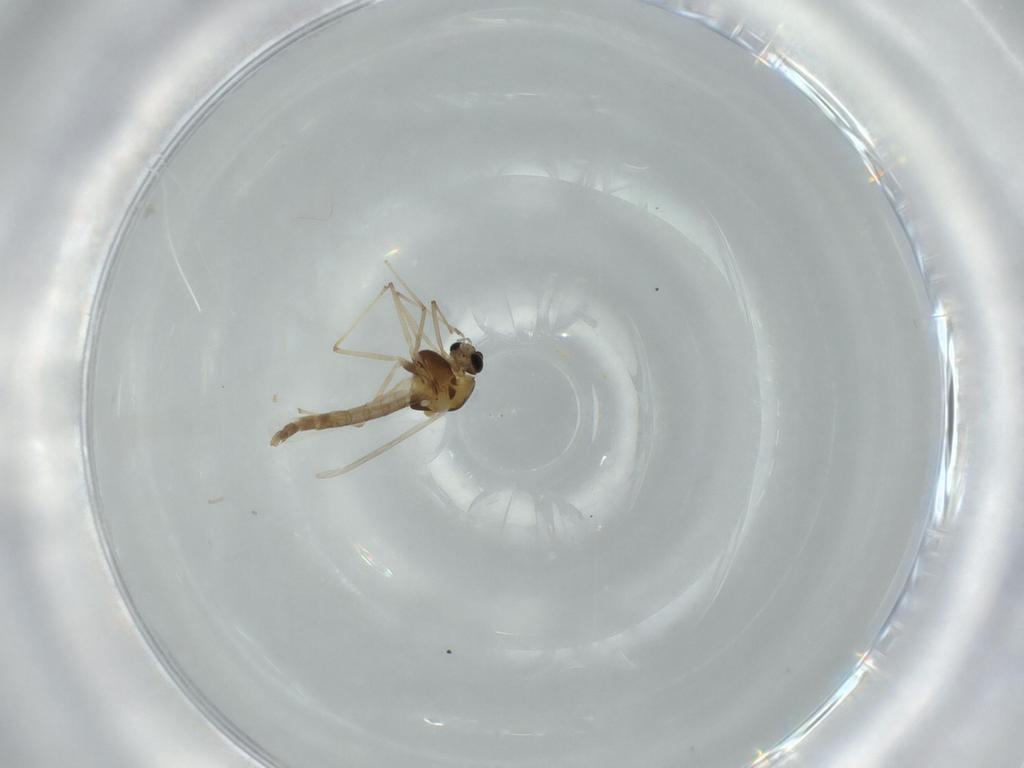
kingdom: Animalia
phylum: Arthropoda
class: Insecta
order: Diptera
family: Chironomidae
